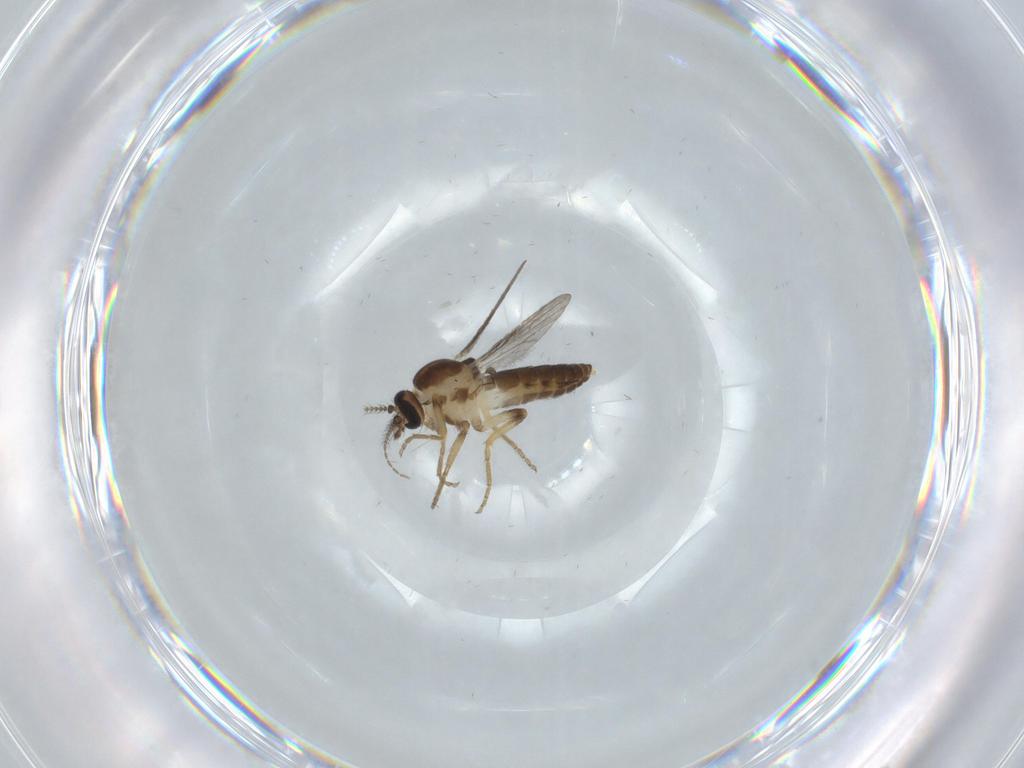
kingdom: Animalia
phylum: Arthropoda
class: Insecta
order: Diptera
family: Ceratopogonidae
